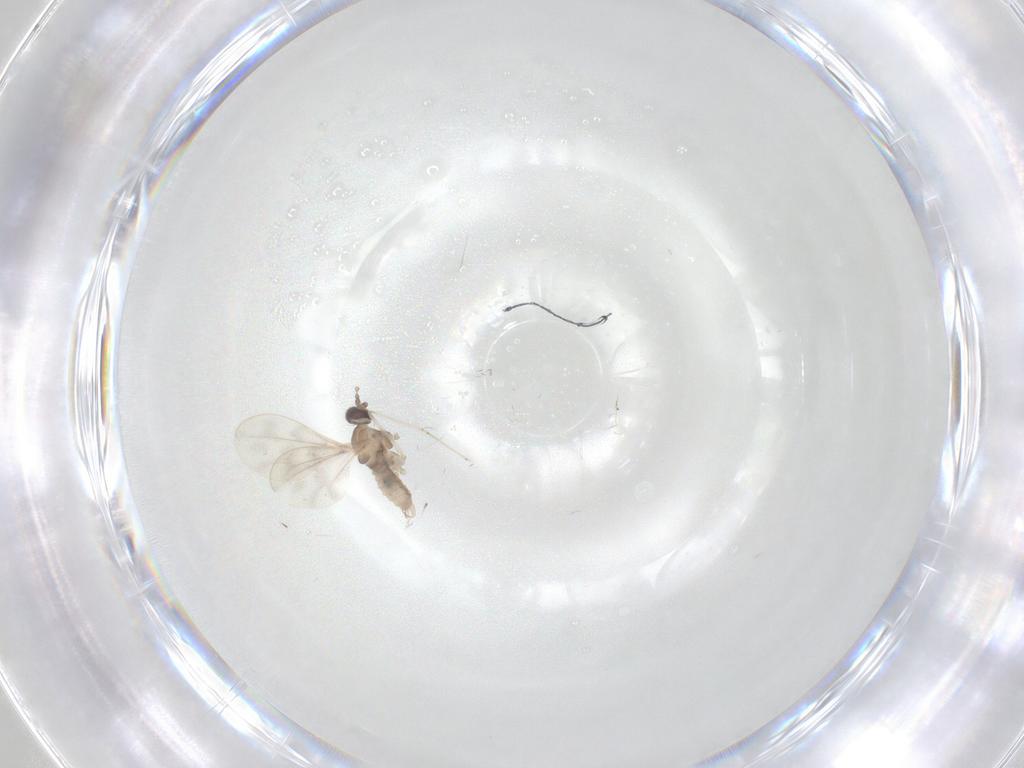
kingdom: Animalia
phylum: Arthropoda
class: Insecta
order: Diptera
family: Cecidomyiidae
